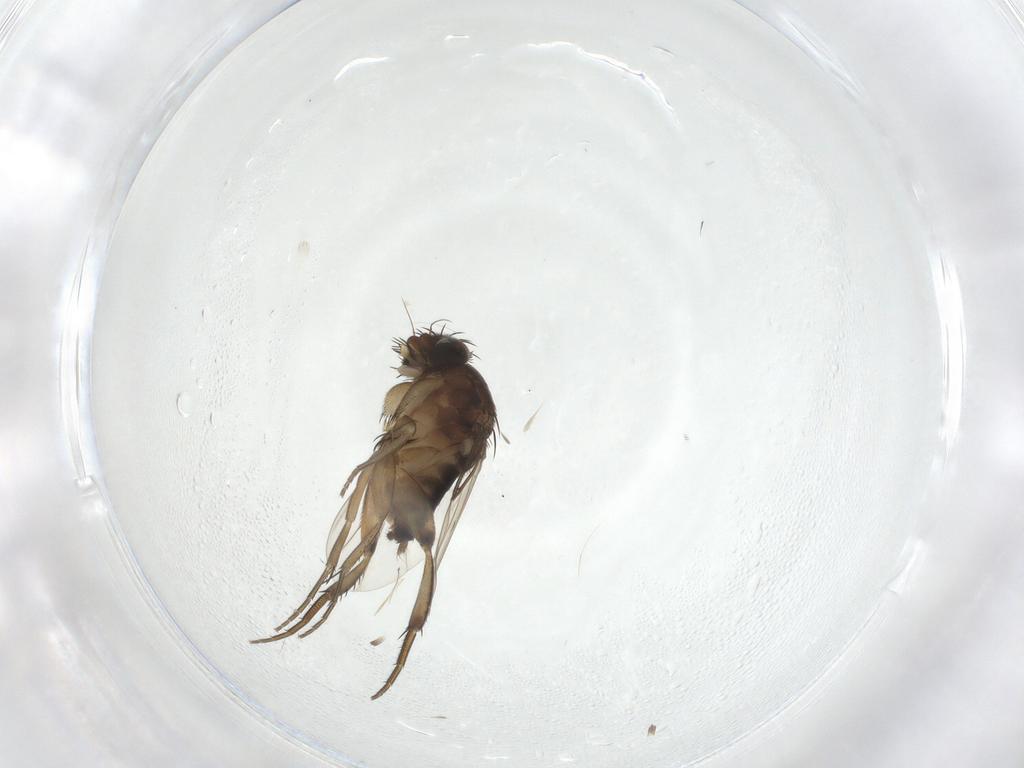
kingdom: Animalia
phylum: Arthropoda
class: Insecta
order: Diptera
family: Phoridae
